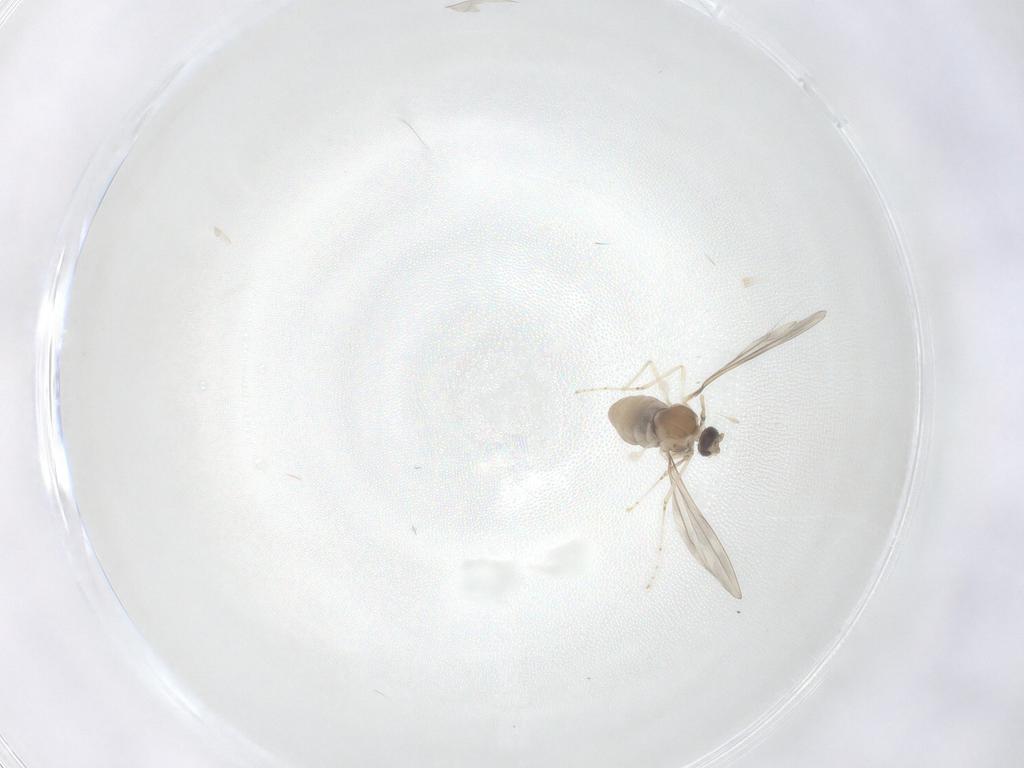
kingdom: Animalia
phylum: Arthropoda
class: Insecta
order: Diptera
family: Cecidomyiidae
